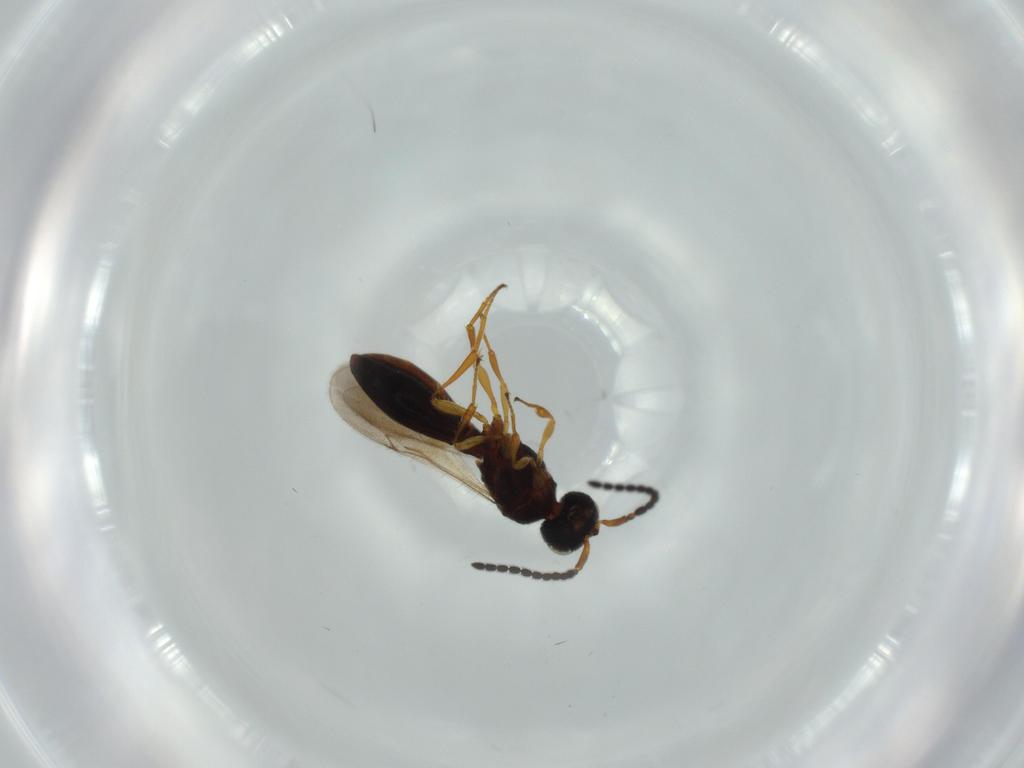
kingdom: Animalia
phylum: Arthropoda
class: Insecta
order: Hymenoptera
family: Scelionidae
